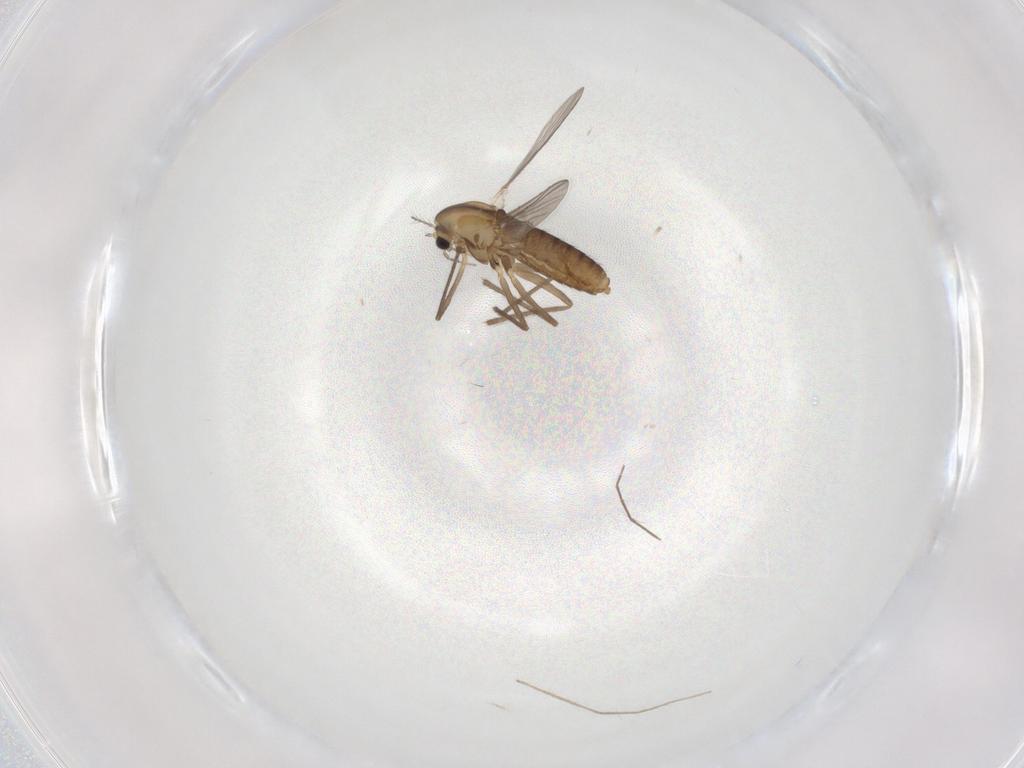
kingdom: Animalia
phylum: Arthropoda
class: Insecta
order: Diptera
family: Chironomidae
